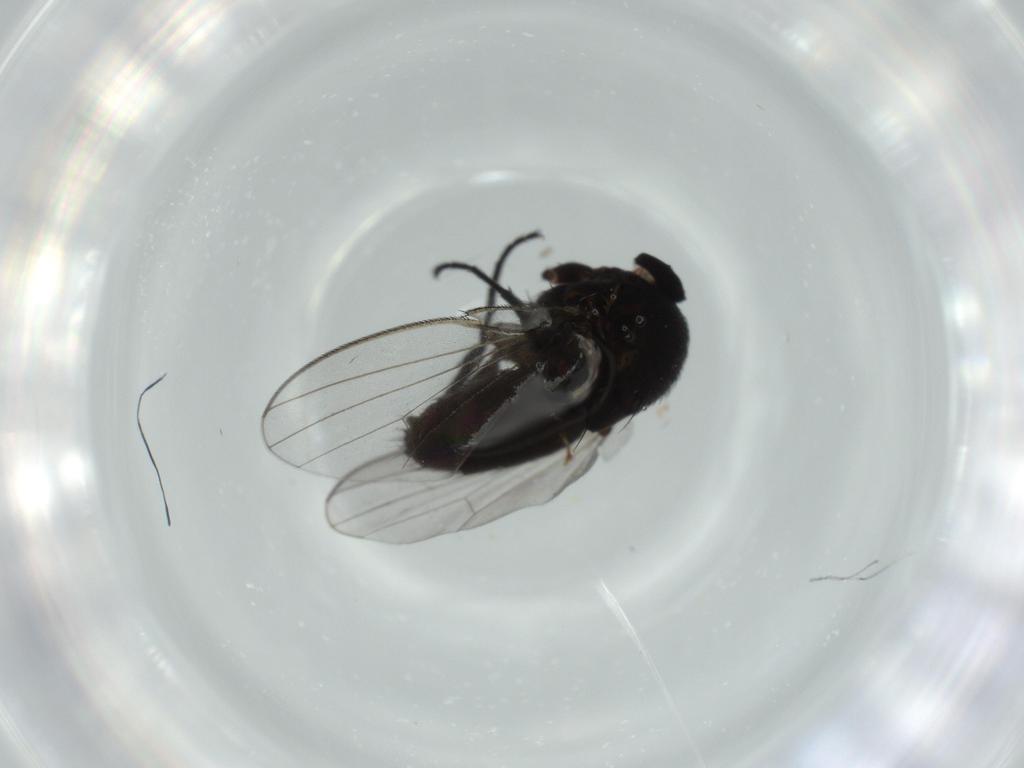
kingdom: Animalia
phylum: Arthropoda
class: Insecta
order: Diptera
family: Milichiidae
